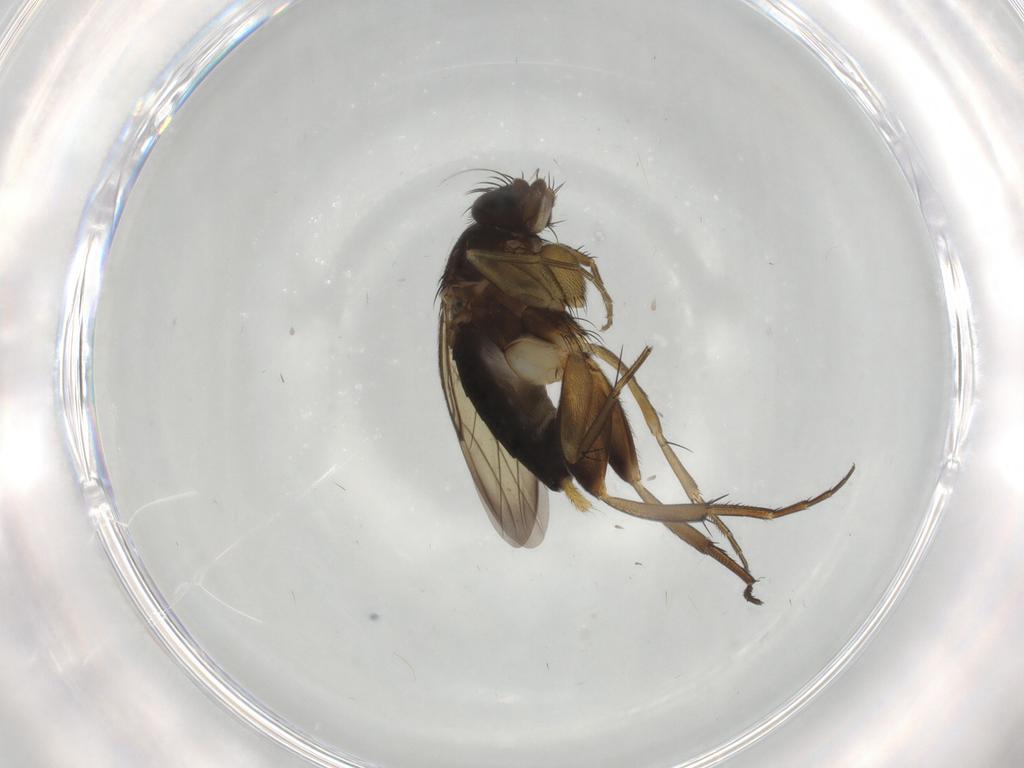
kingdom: Animalia
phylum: Arthropoda
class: Insecta
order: Diptera
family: Phoridae
